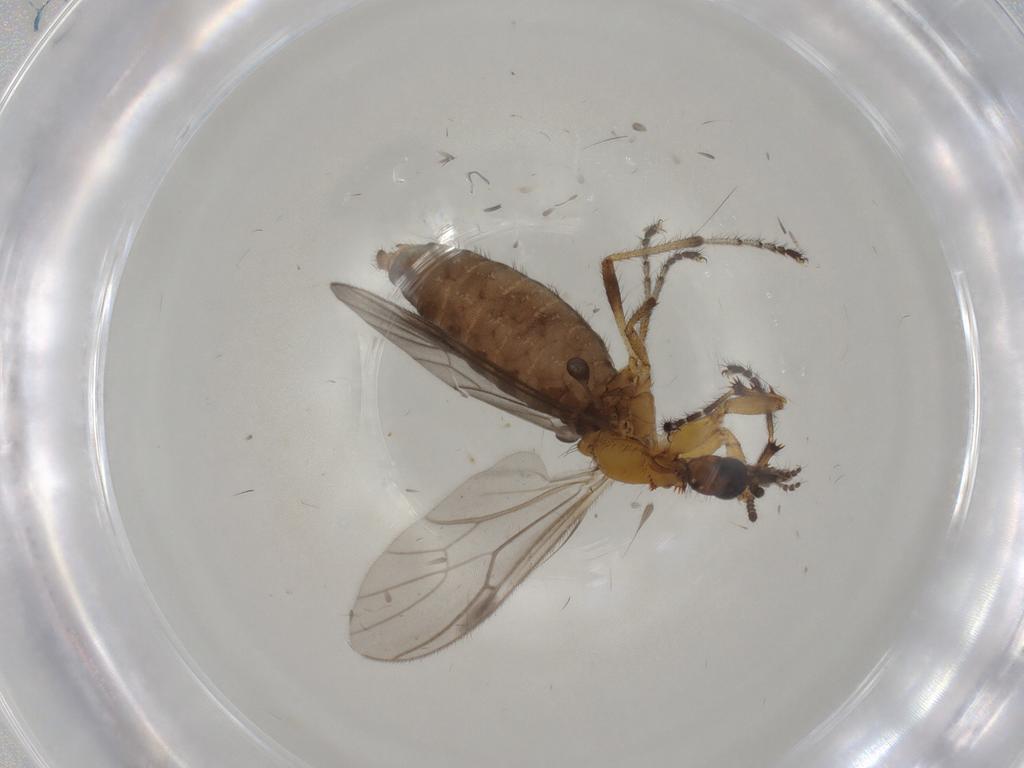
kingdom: Animalia
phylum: Arthropoda
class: Insecta
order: Diptera
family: Bibionidae
